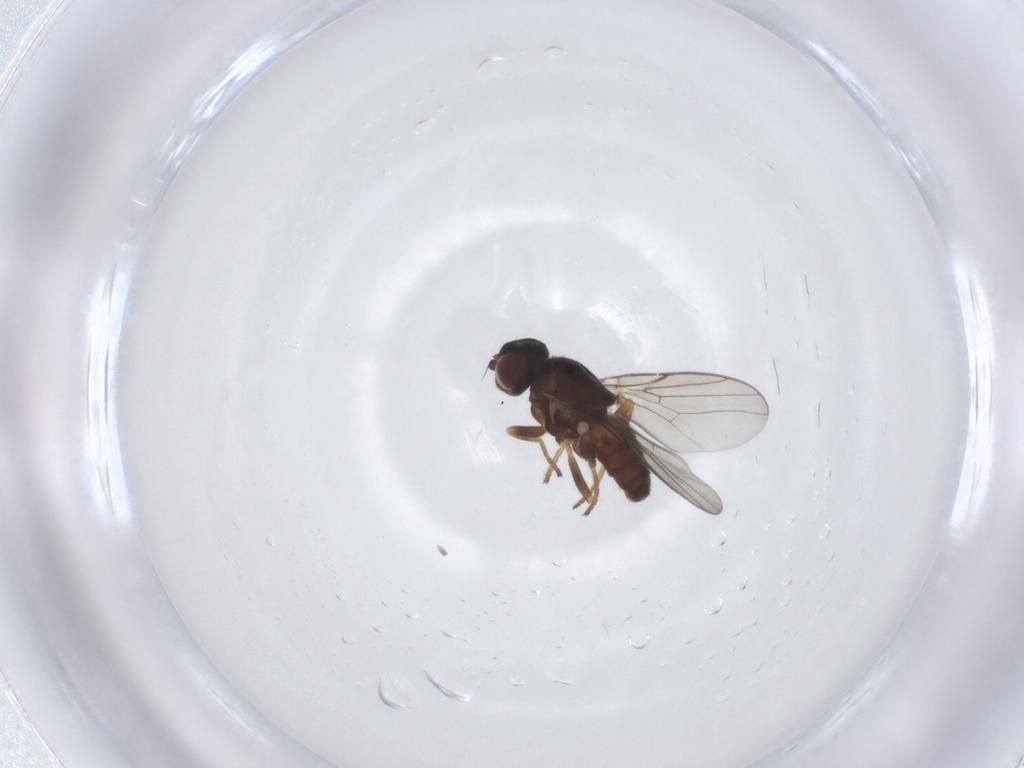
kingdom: Animalia
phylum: Arthropoda
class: Insecta
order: Diptera
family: Chloropidae
